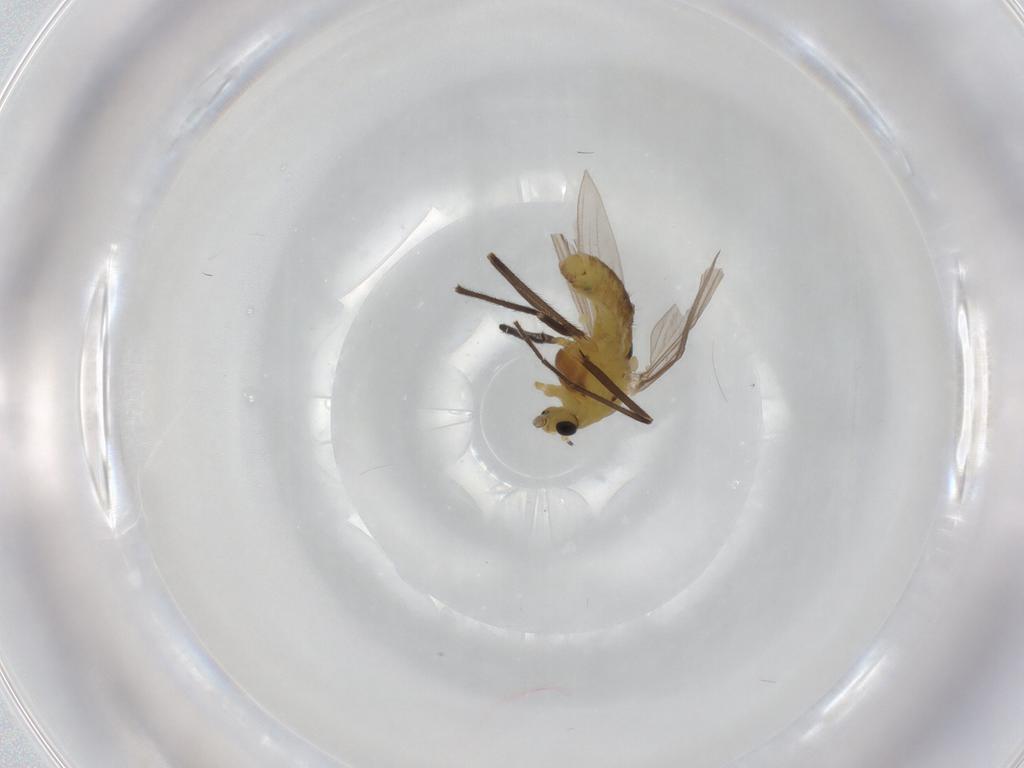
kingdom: Animalia
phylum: Arthropoda
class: Insecta
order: Diptera
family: Chironomidae
